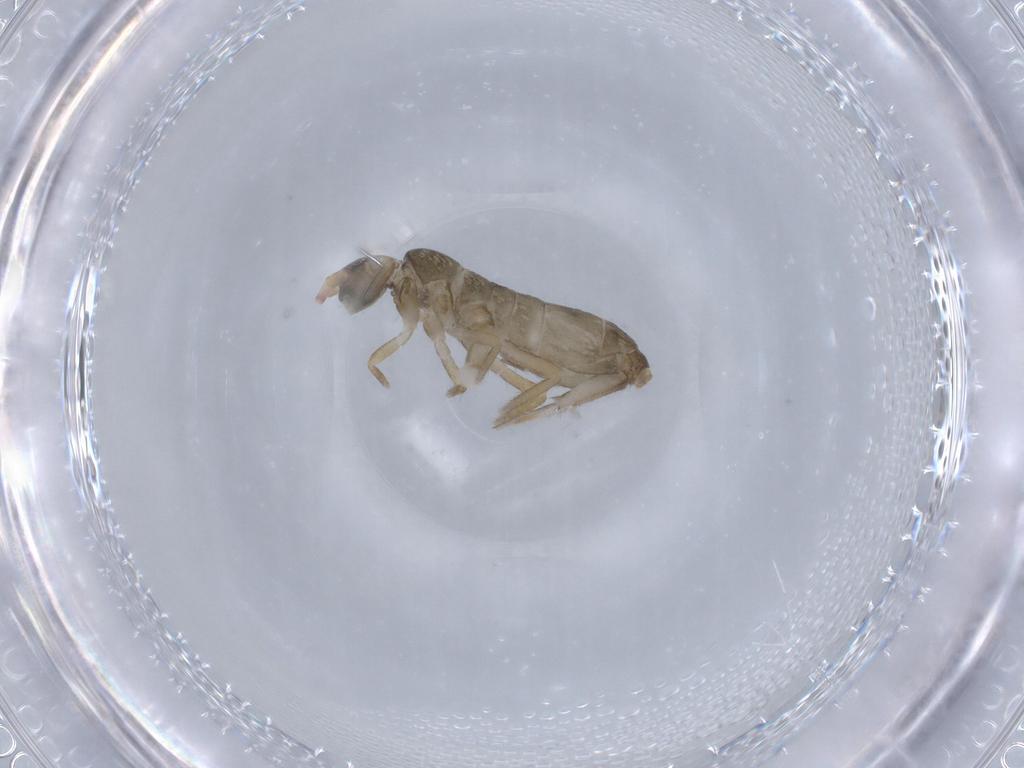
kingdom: Animalia
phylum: Arthropoda
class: Collembola
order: Entomobryomorpha
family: Tomoceridae
